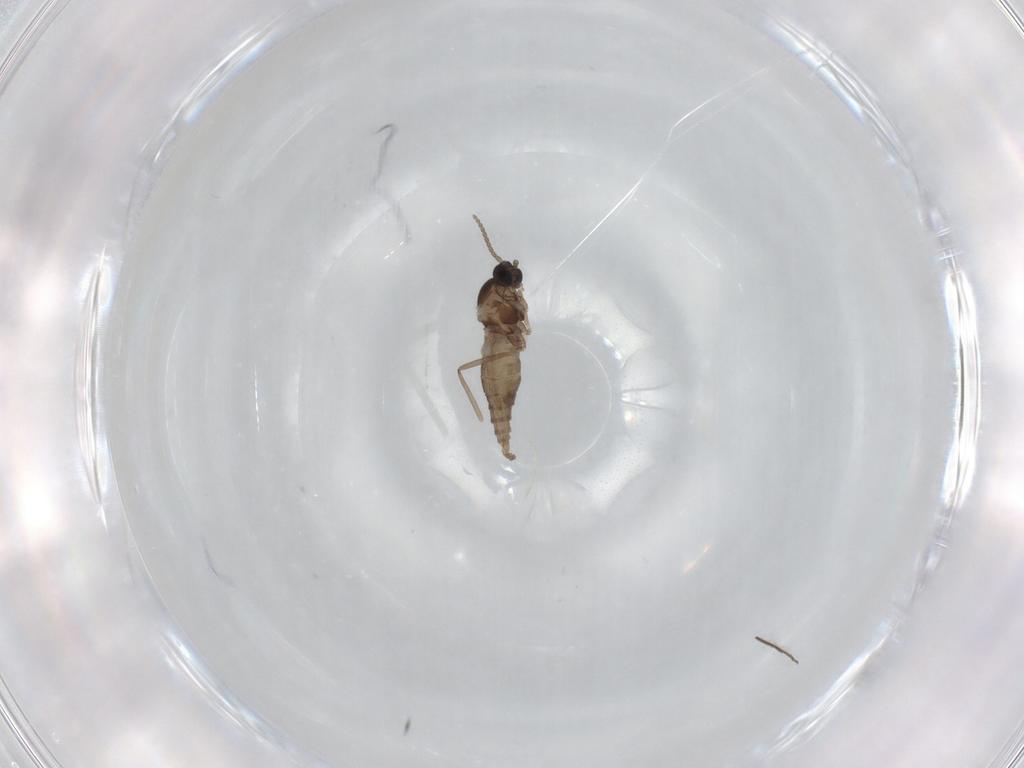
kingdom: Animalia
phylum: Arthropoda
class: Insecta
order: Diptera
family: Cecidomyiidae
